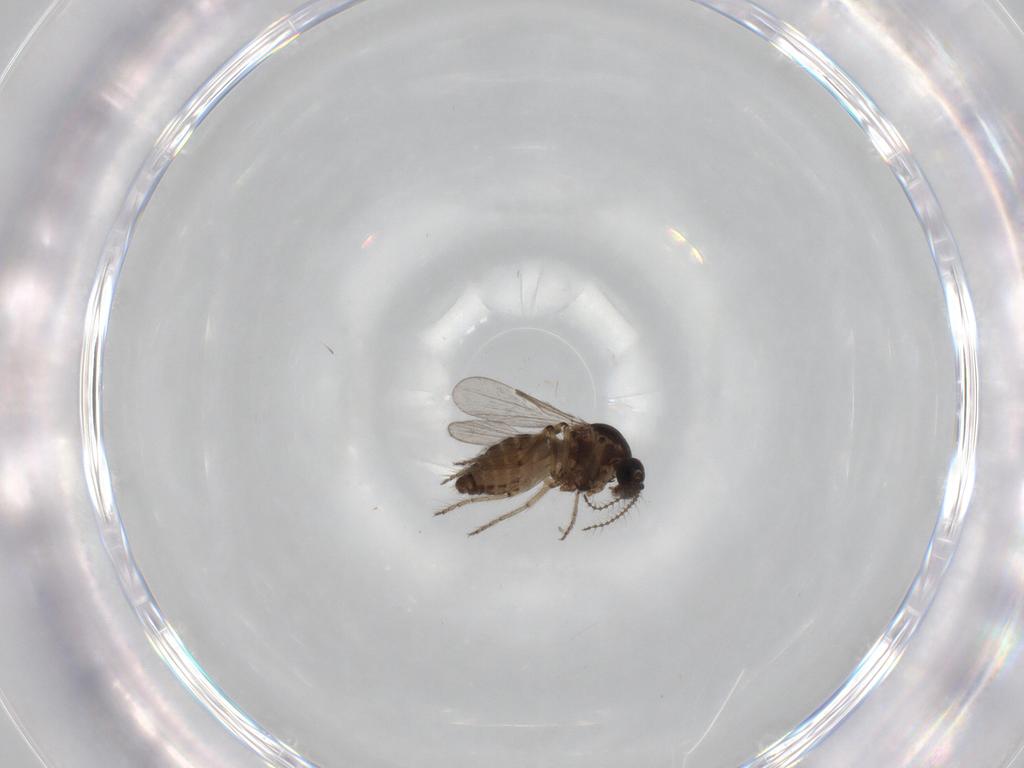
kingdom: Animalia
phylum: Arthropoda
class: Insecta
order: Diptera
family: Ceratopogonidae
